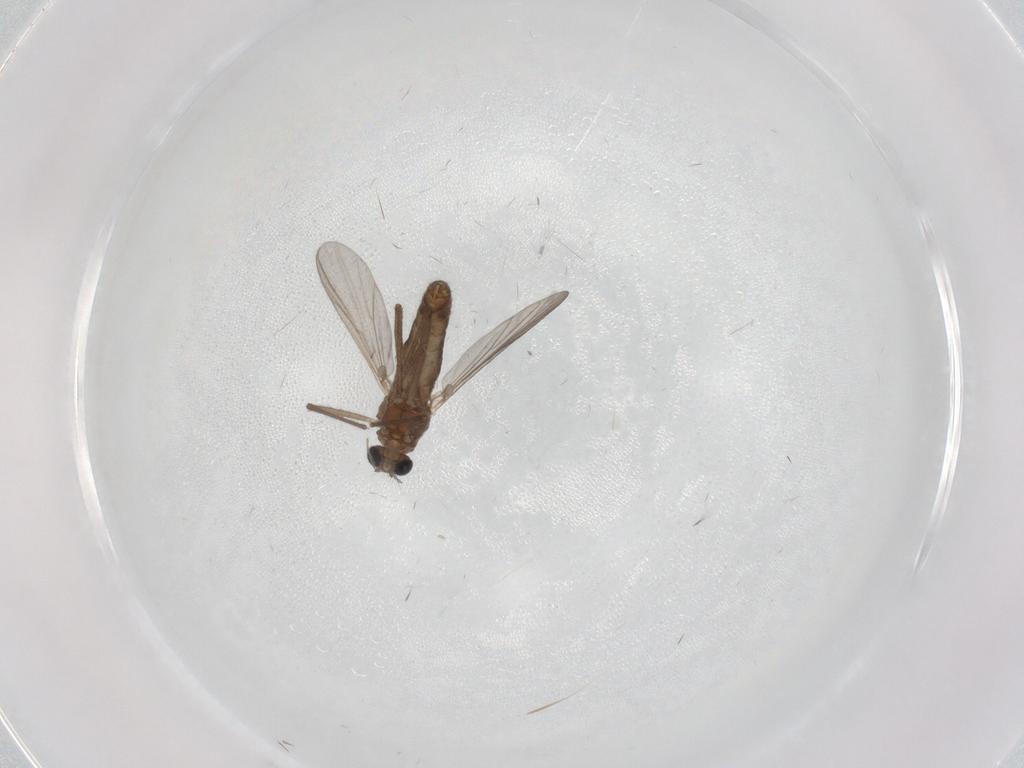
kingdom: Animalia
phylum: Arthropoda
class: Insecta
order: Diptera
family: Chironomidae
